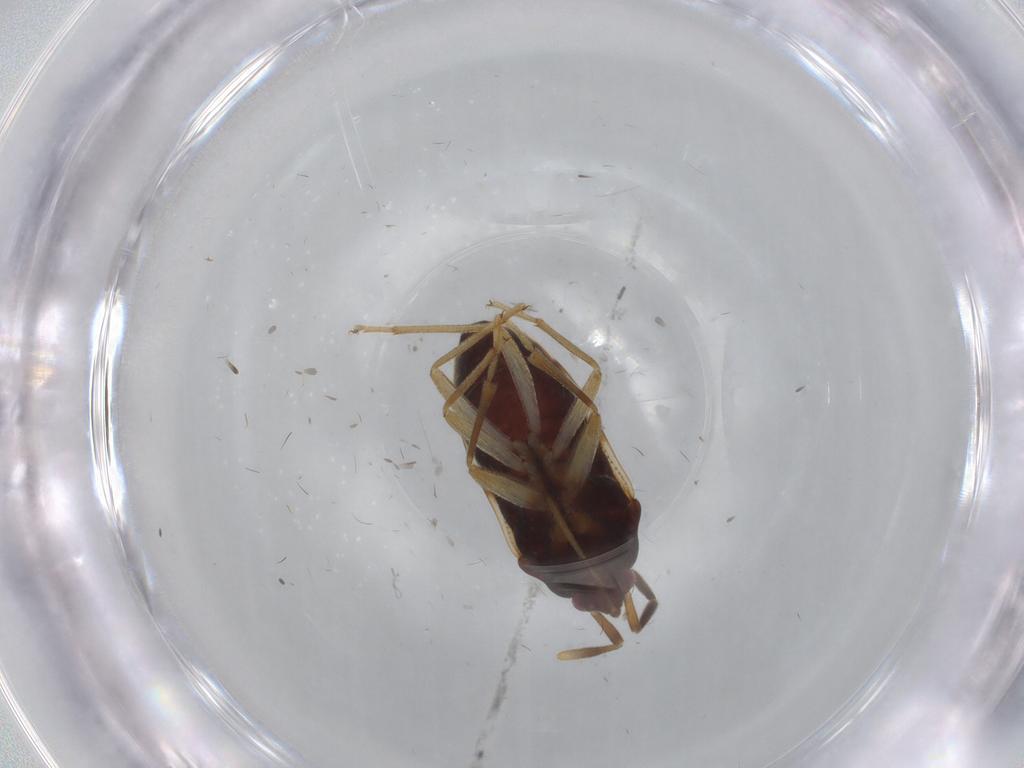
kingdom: Animalia
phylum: Arthropoda
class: Insecta
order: Hemiptera
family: Rhyparochromidae
